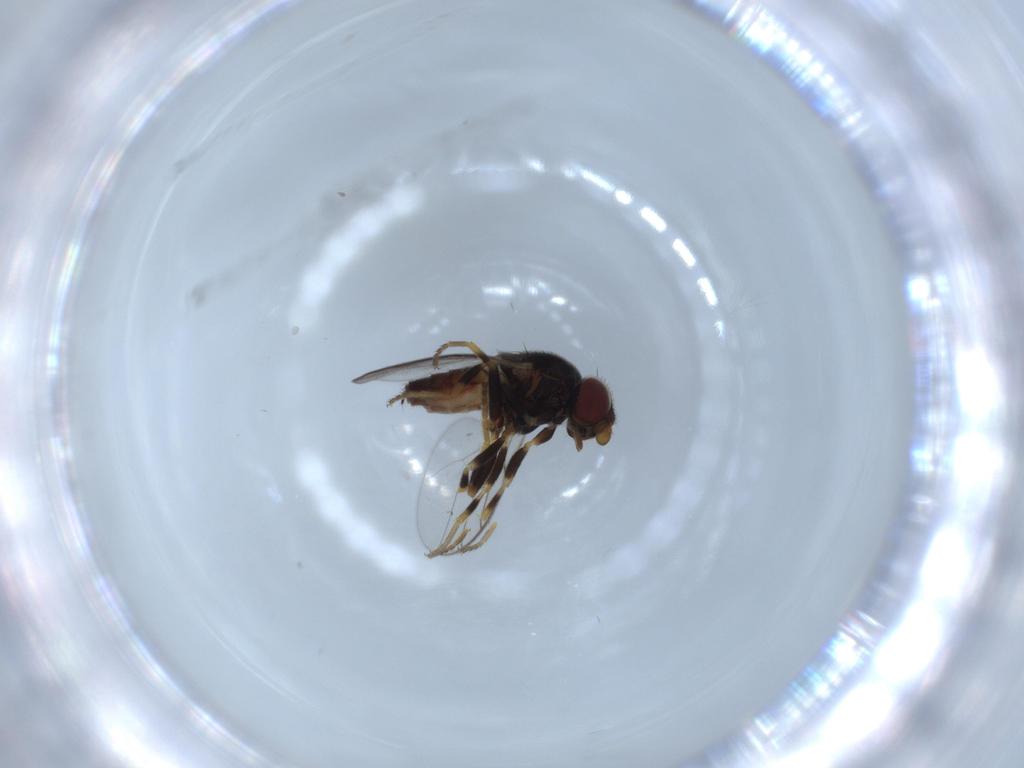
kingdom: Animalia
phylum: Arthropoda
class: Insecta
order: Diptera
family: Chloropidae
